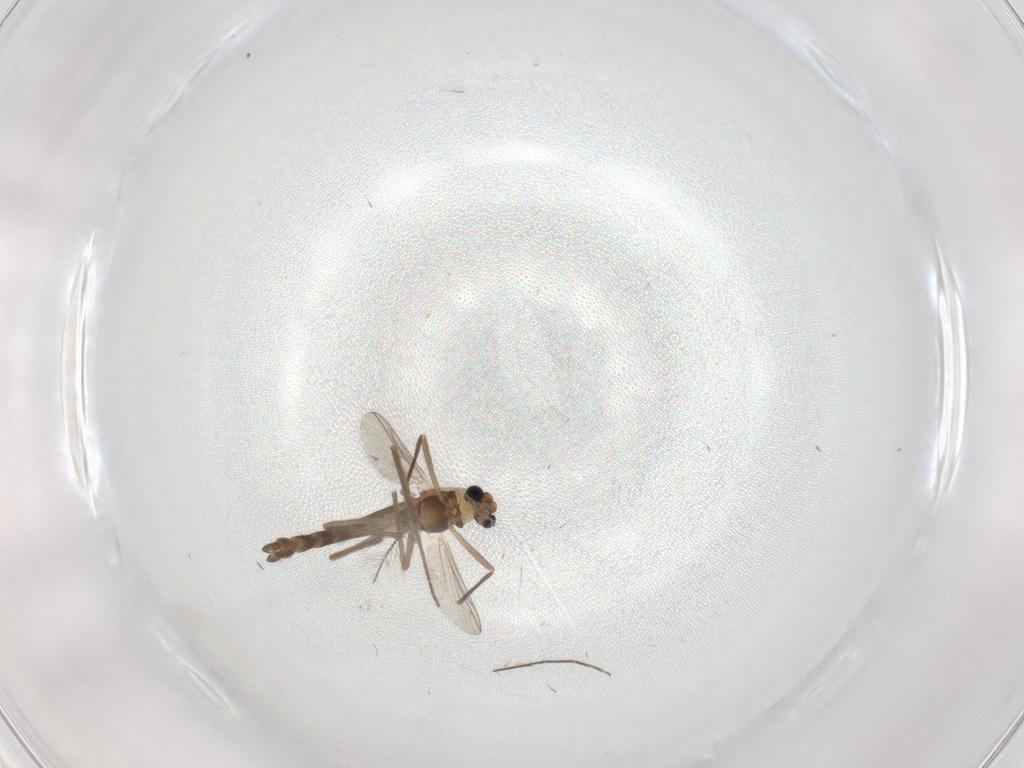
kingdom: Animalia
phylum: Arthropoda
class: Insecta
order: Diptera
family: Chironomidae
